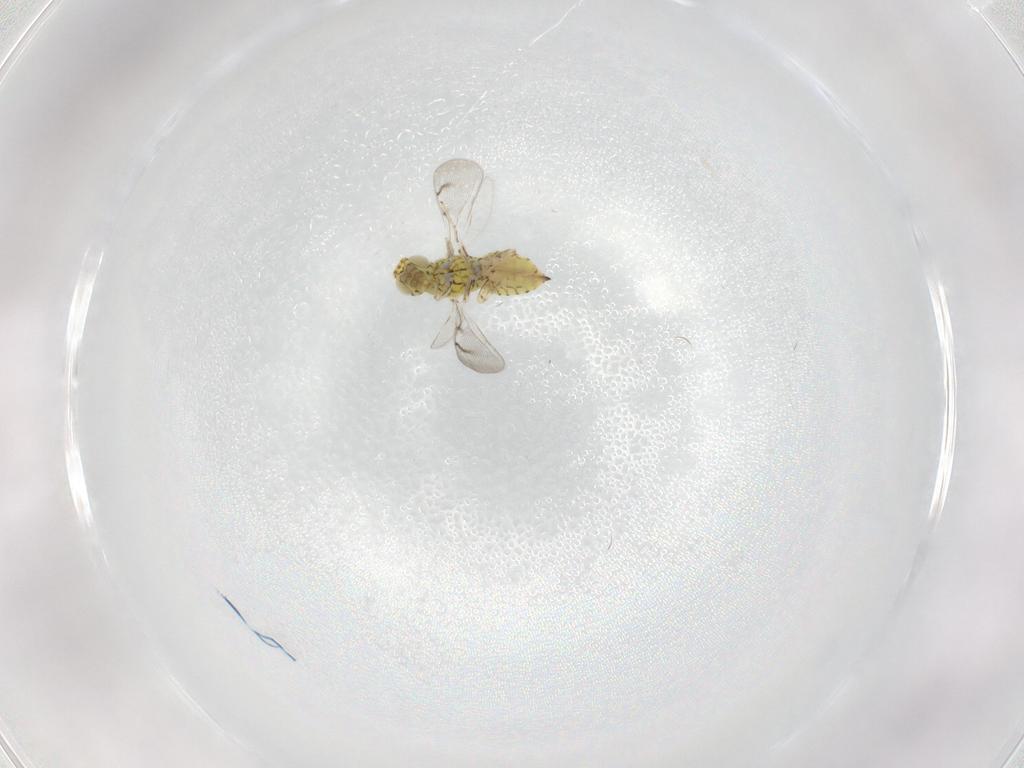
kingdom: Animalia
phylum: Arthropoda
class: Insecta
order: Hymenoptera
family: Eulophidae
